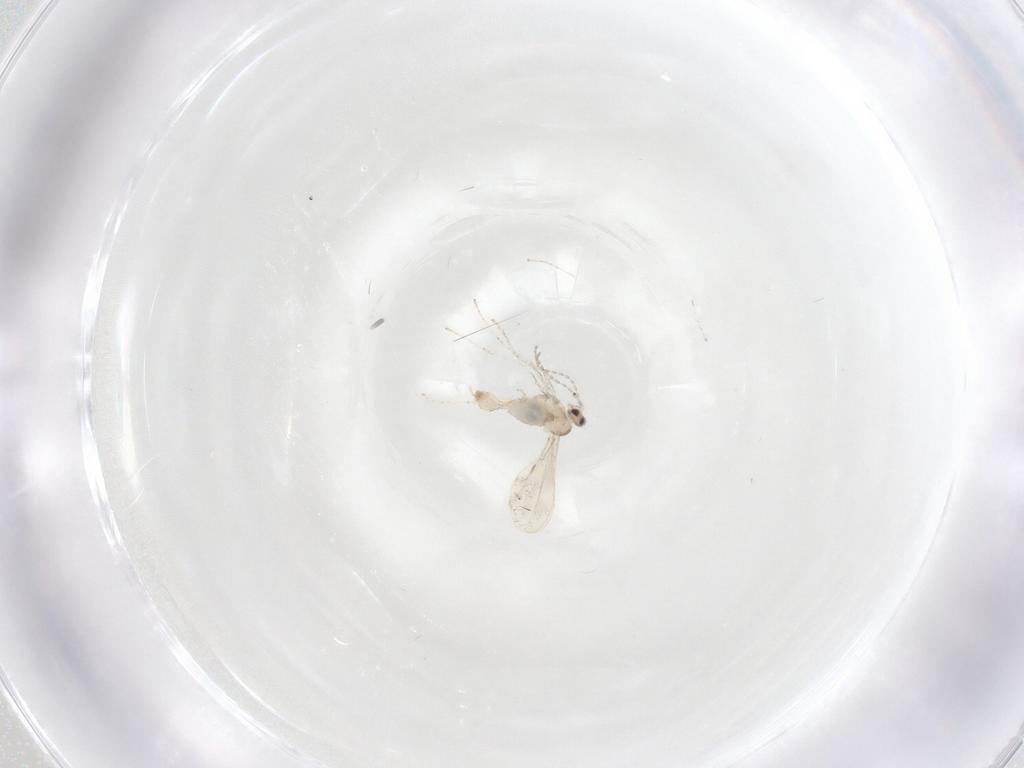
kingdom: Animalia
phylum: Arthropoda
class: Insecta
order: Diptera
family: Cecidomyiidae
